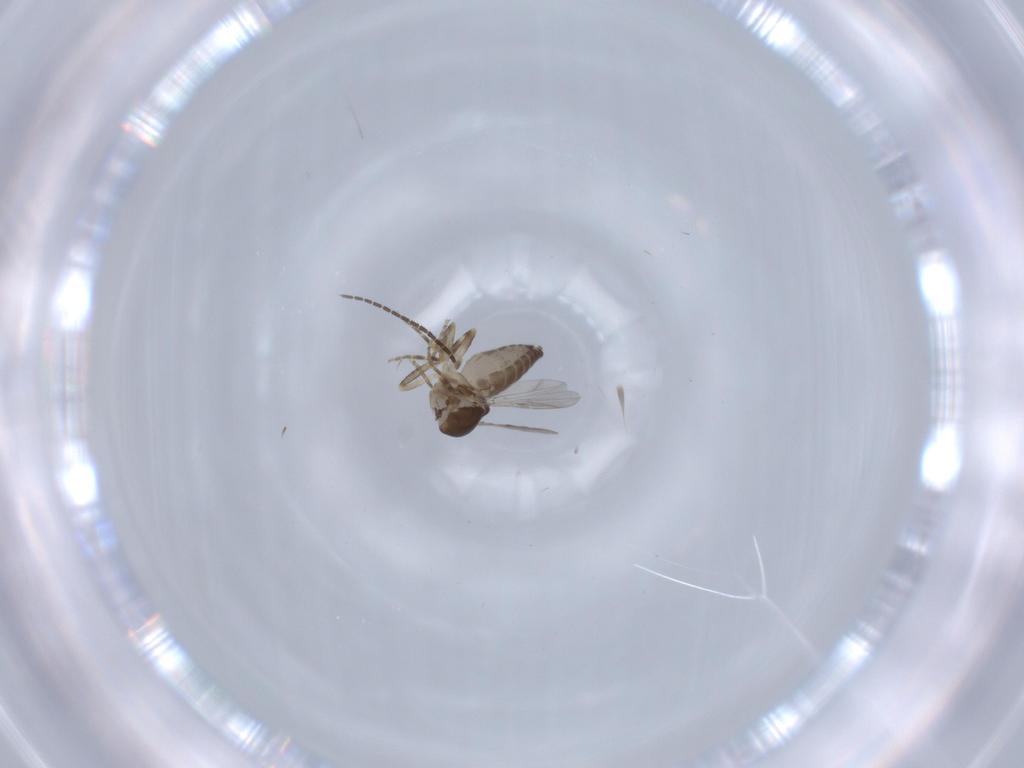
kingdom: Animalia
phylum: Arthropoda
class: Insecta
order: Diptera
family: Ceratopogonidae
